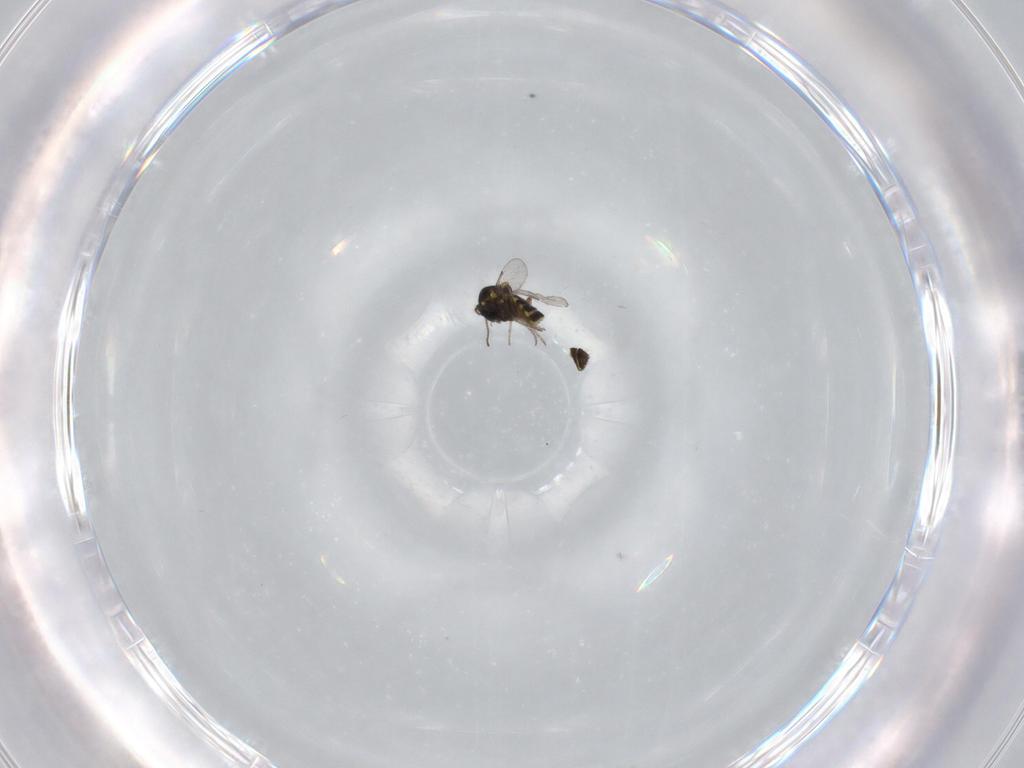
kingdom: Animalia
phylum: Arthropoda
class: Insecta
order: Diptera
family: Ceratopogonidae
